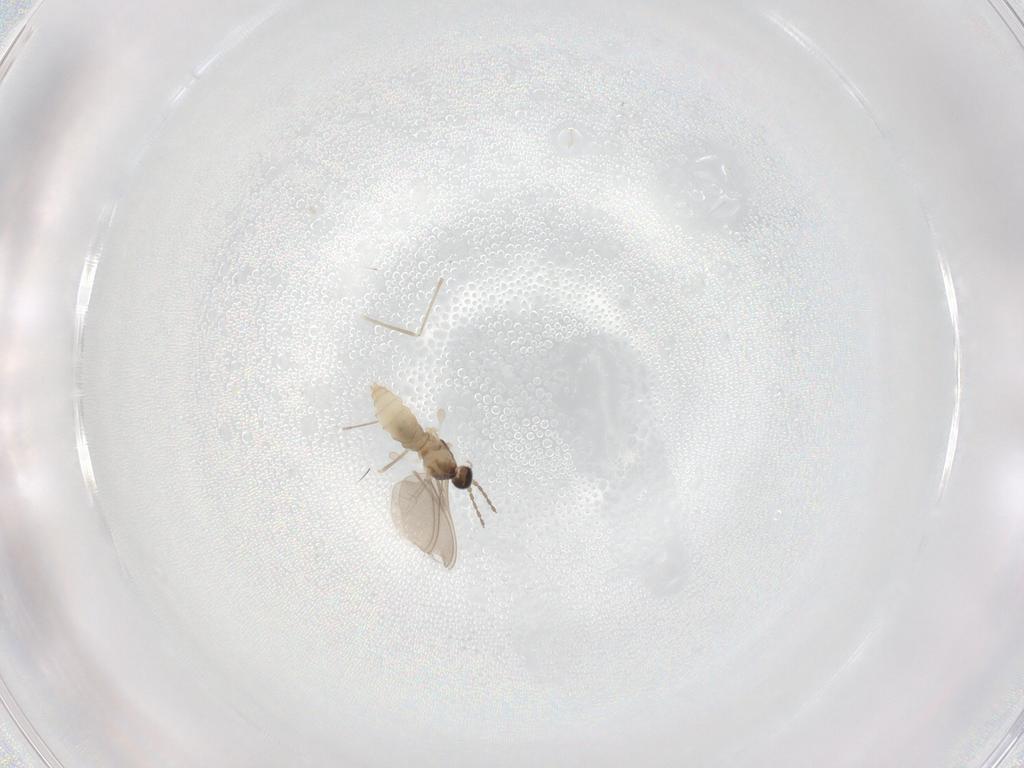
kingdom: Animalia
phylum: Arthropoda
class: Insecta
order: Diptera
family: Cecidomyiidae
